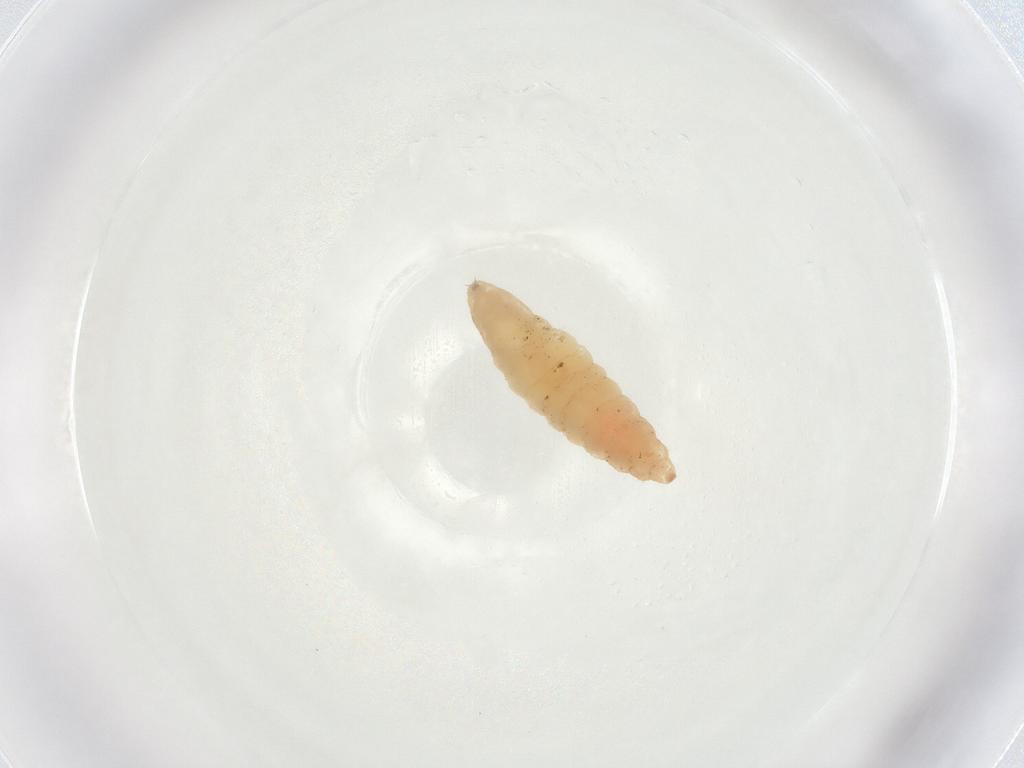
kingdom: Animalia
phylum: Arthropoda
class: Insecta
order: Diptera
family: Cecidomyiidae
